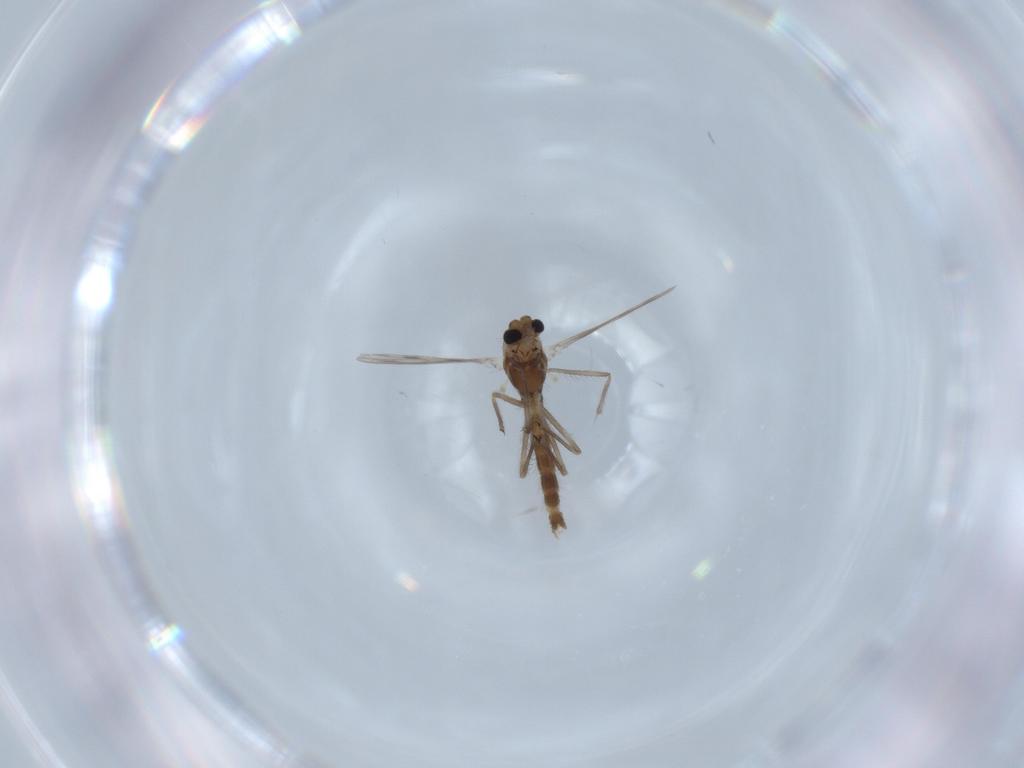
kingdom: Animalia
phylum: Arthropoda
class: Insecta
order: Diptera
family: Chironomidae
